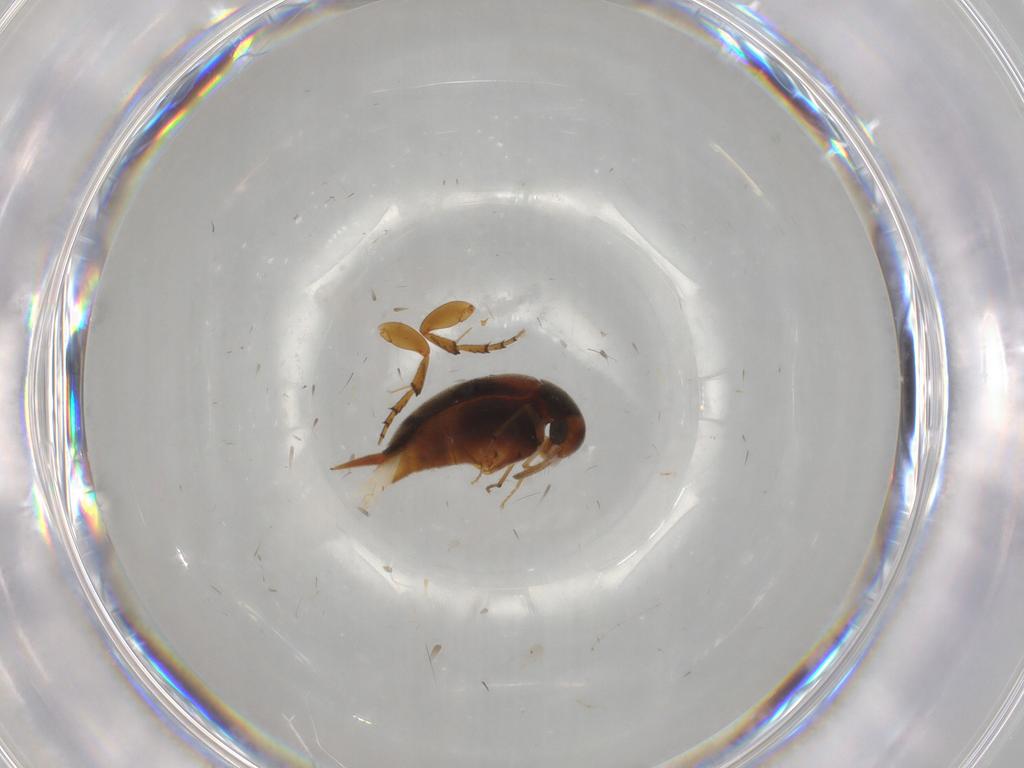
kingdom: Animalia
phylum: Arthropoda
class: Insecta
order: Coleoptera
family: Mordellidae
